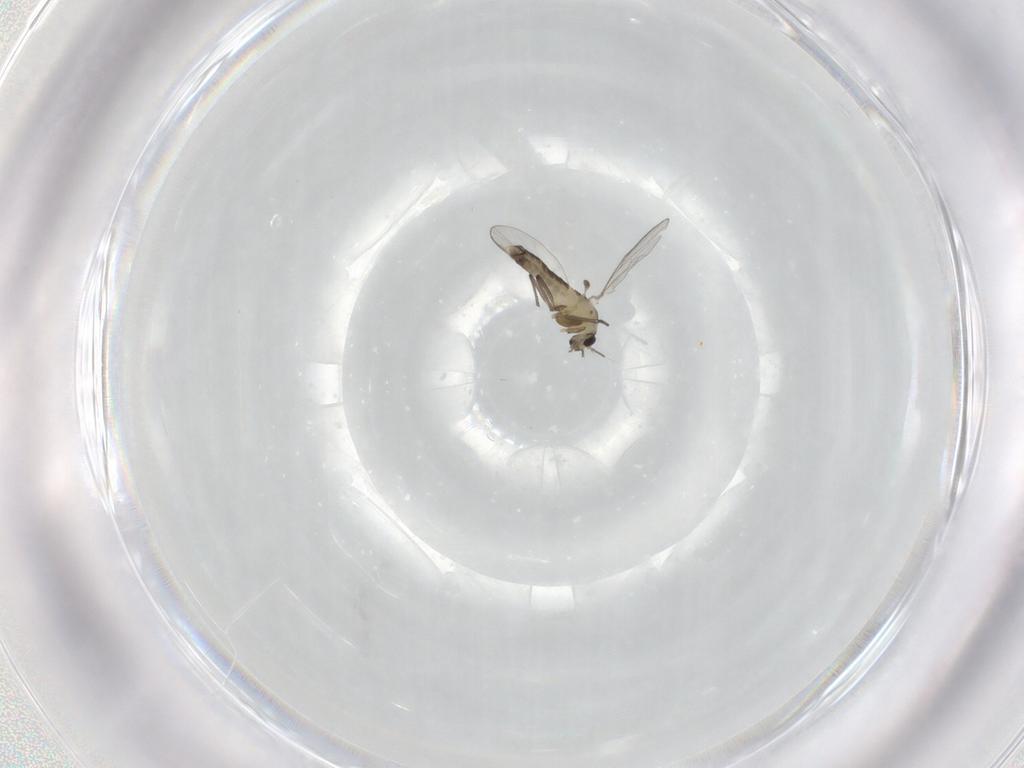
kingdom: Animalia
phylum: Arthropoda
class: Insecta
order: Diptera
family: Chironomidae
